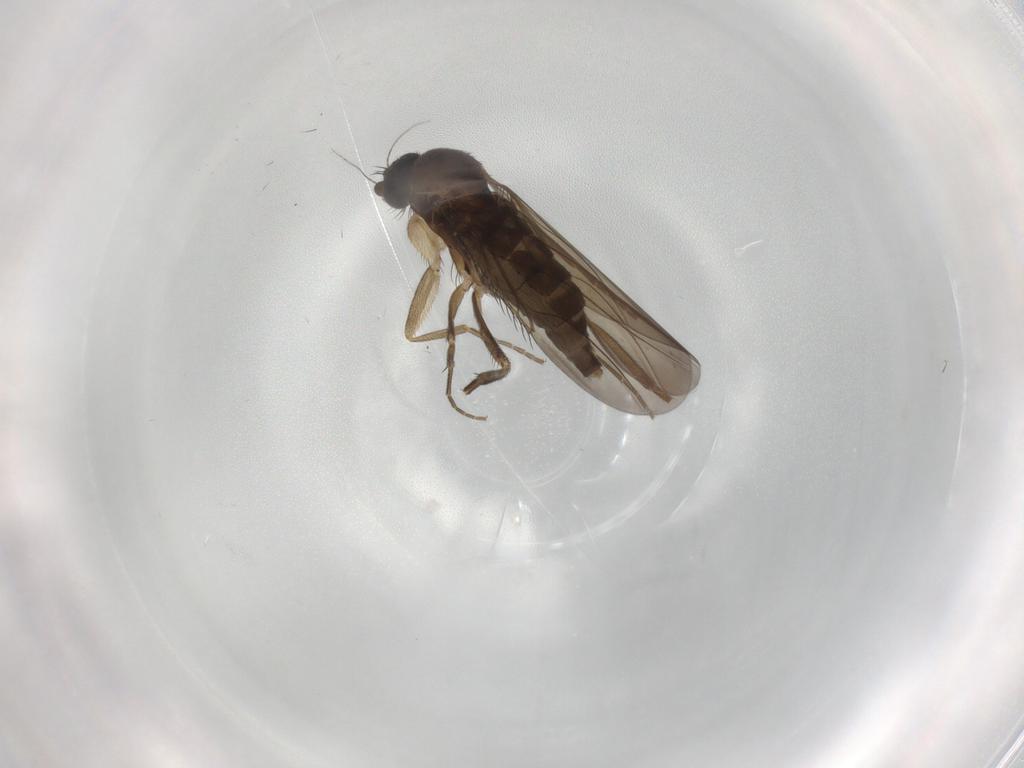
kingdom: Animalia
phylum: Arthropoda
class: Insecta
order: Diptera
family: Phoridae
